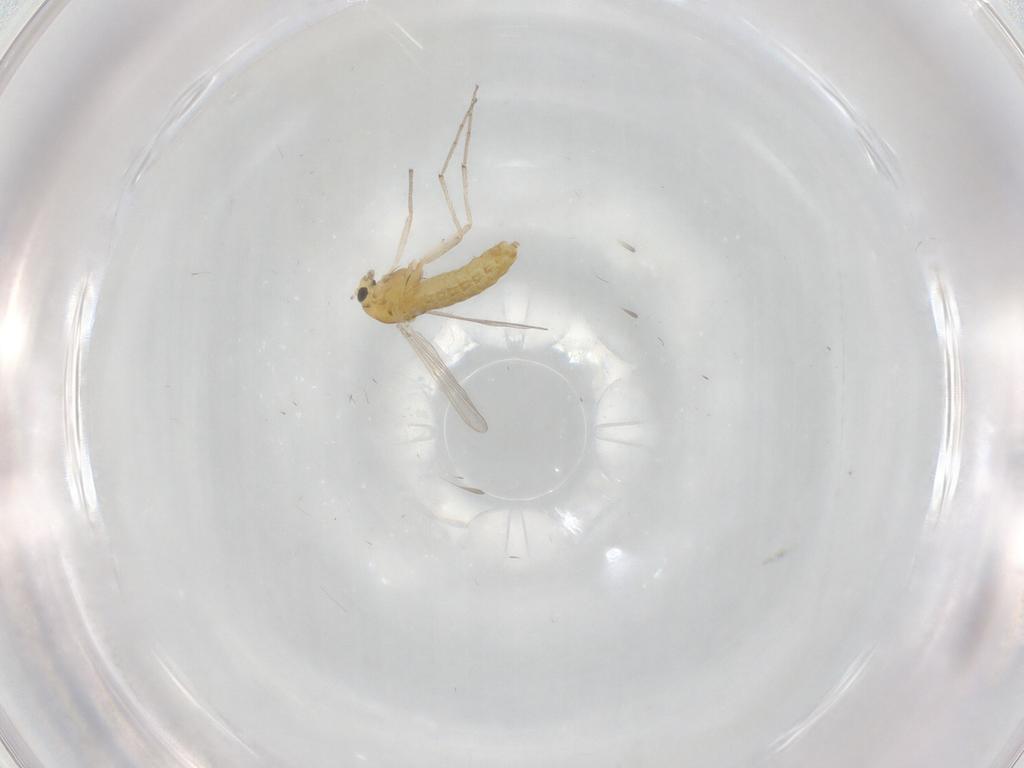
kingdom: Animalia
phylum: Arthropoda
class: Insecta
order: Diptera
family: Chironomidae
